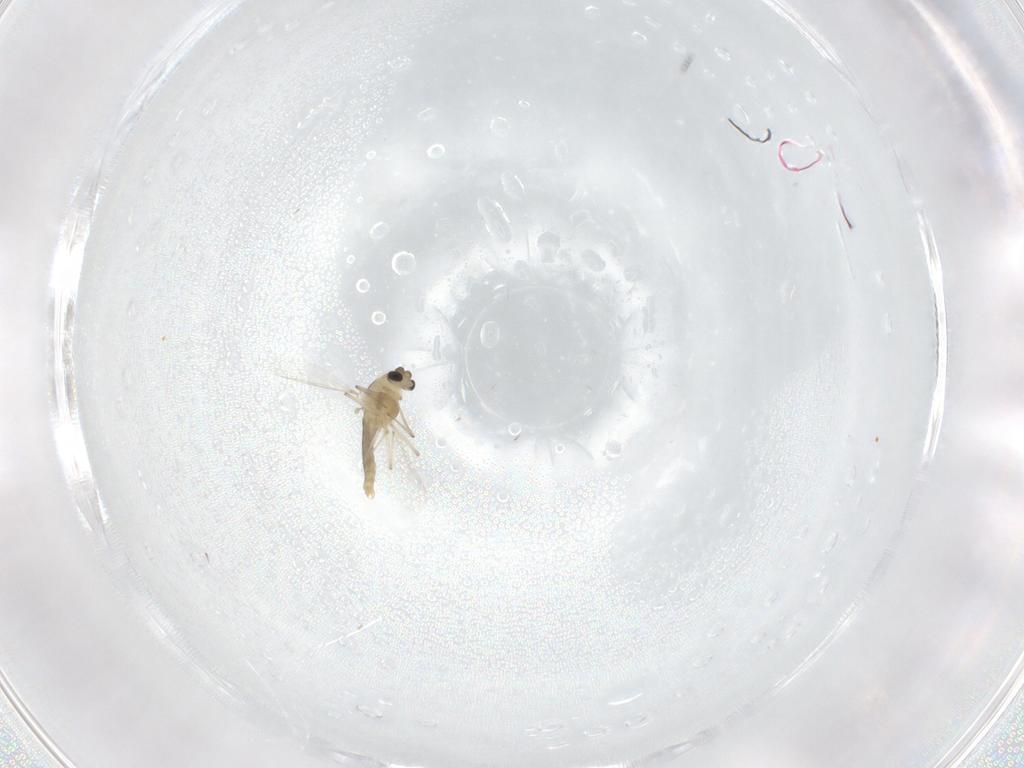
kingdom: Animalia
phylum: Arthropoda
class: Insecta
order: Diptera
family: Chironomidae
